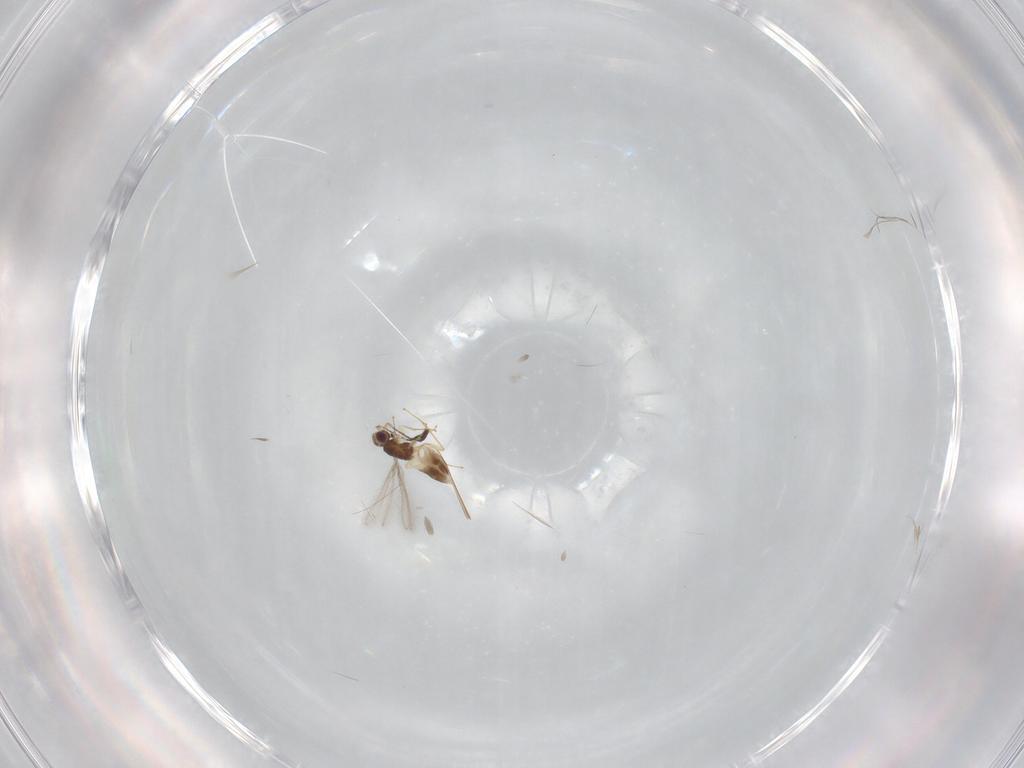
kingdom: Animalia
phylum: Arthropoda
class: Insecta
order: Hymenoptera
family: Mymaridae
